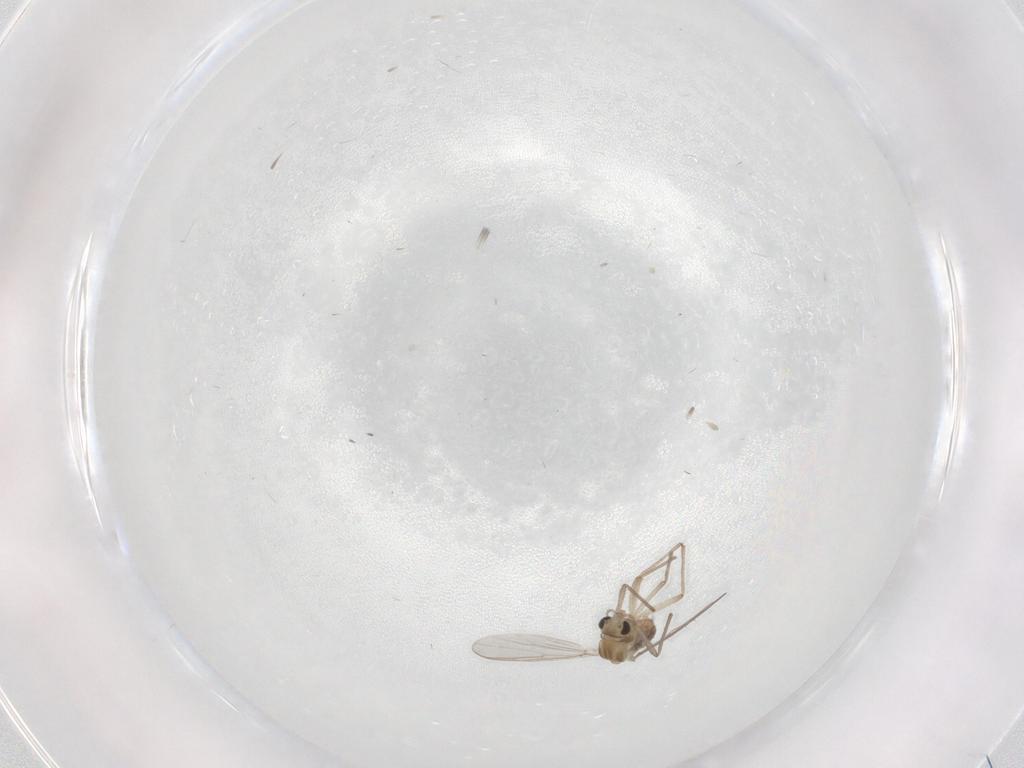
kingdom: Animalia
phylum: Arthropoda
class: Insecta
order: Diptera
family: Chironomidae
